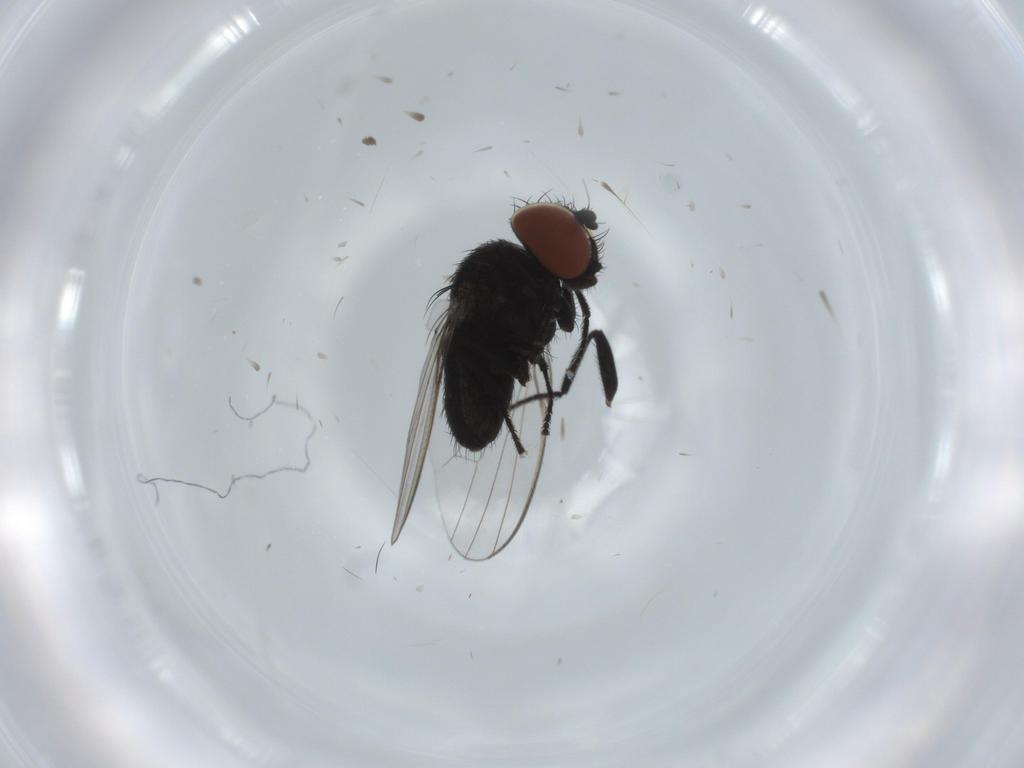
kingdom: Animalia
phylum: Arthropoda
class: Insecta
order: Diptera
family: Milichiidae
